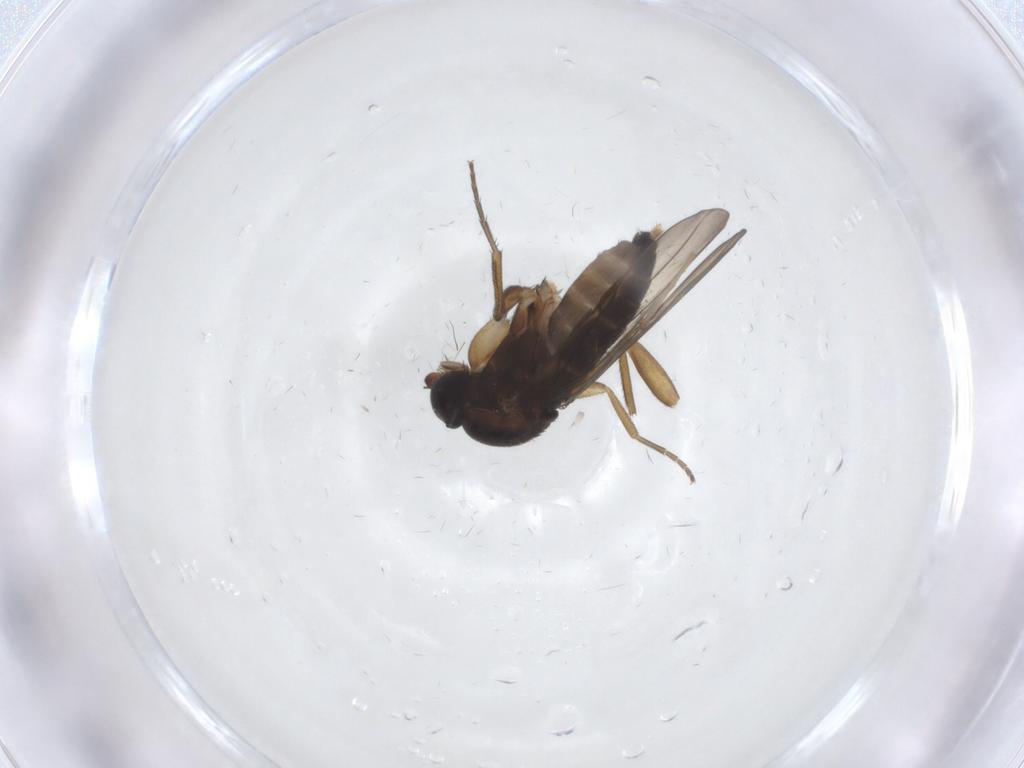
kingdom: Animalia
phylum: Arthropoda
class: Insecta
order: Diptera
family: Phoridae
